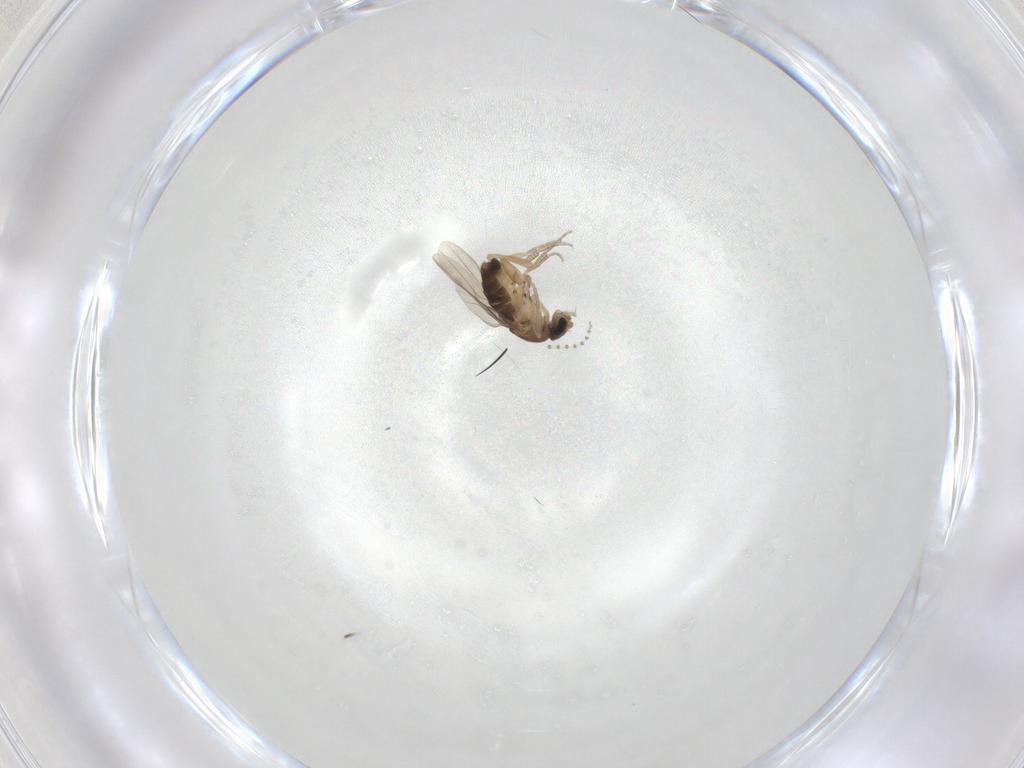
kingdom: Animalia
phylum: Arthropoda
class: Insecta
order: Diptera
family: Psychodidae
